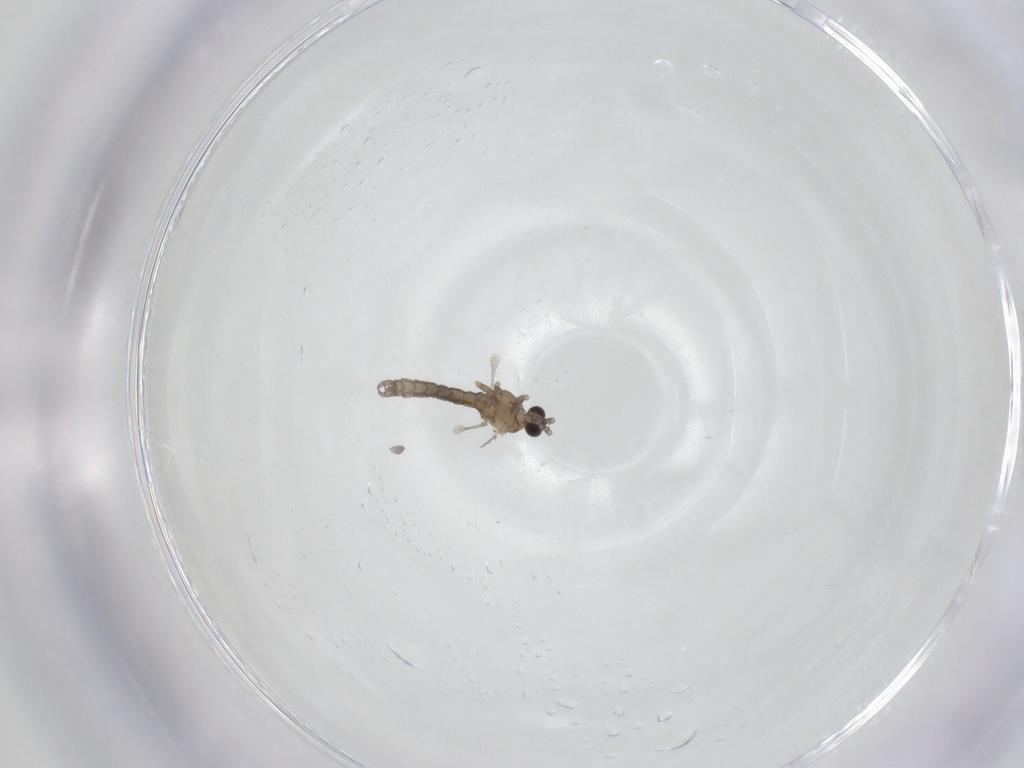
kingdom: Animalia
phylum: Arthropoda
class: Insecta
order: Diptera
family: Cecidomyiidae
